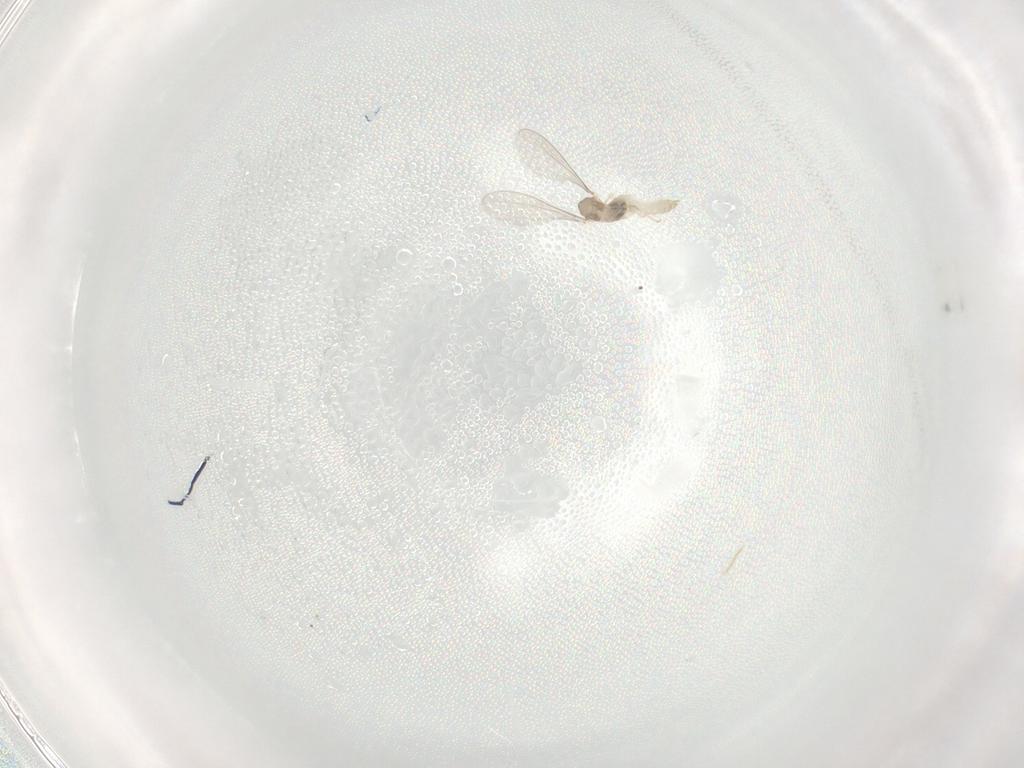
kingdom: Animalia
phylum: Arthropoda
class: Insecta
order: Diptera
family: Cecidomyiidae
